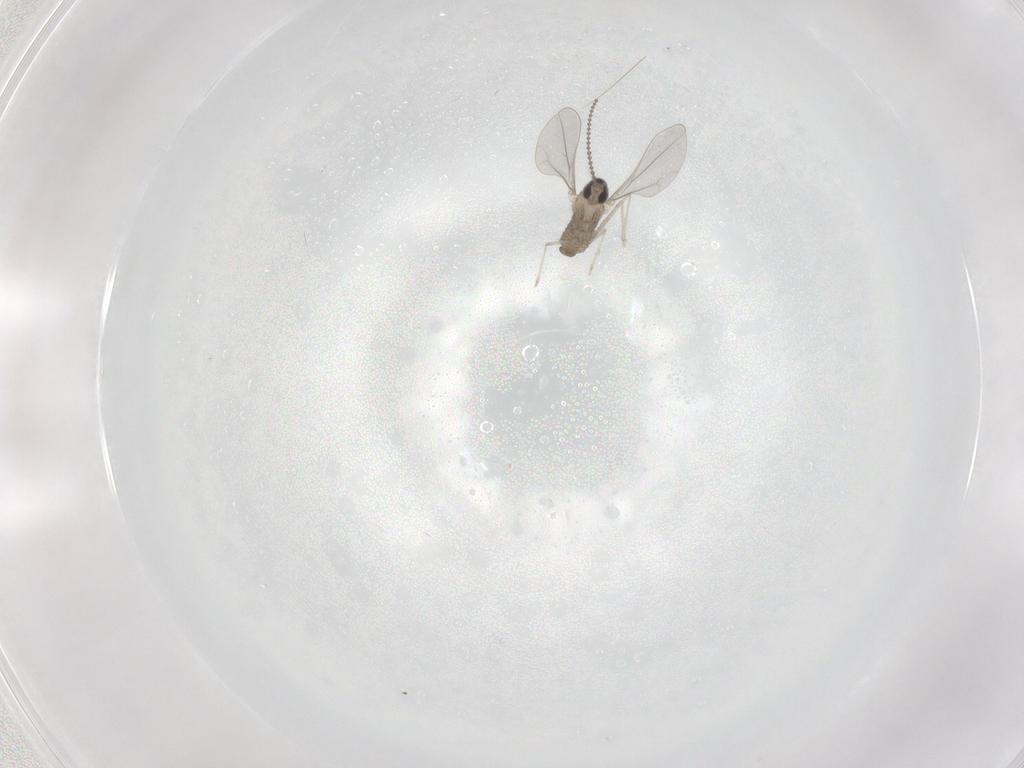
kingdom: Animalia
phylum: Arthropoda
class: Insecta
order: Diptera
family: Cecidomyiidae
